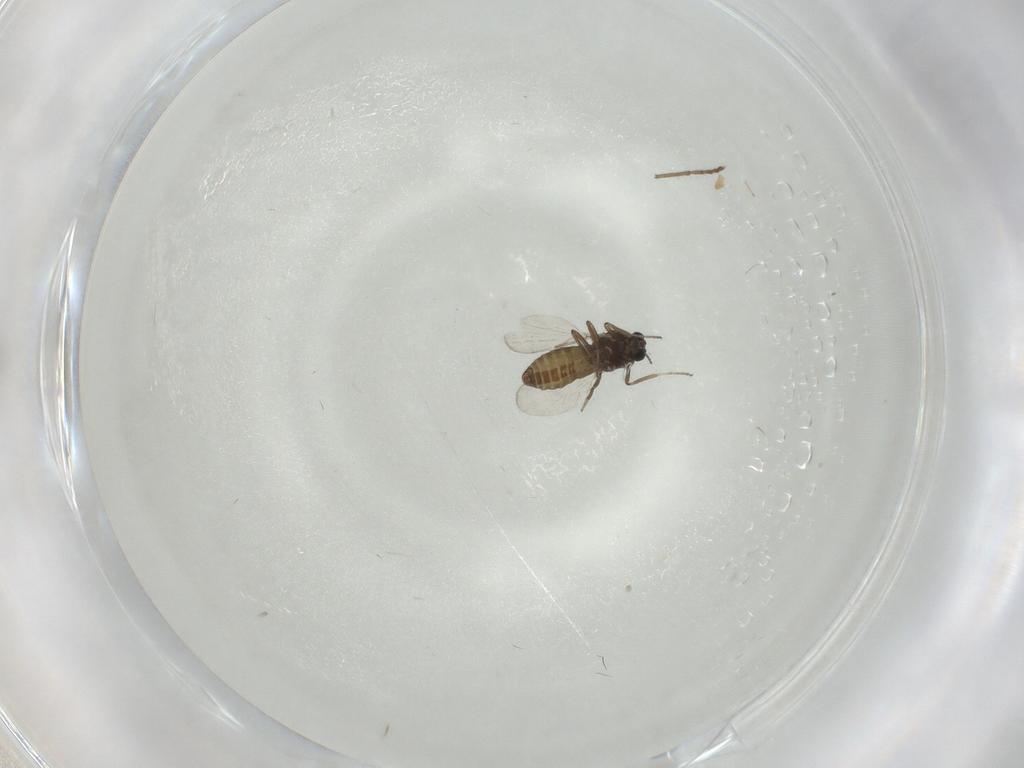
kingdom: Animalia
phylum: Arthropoda
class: Insecta
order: Diptera
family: Ceratopogonidae
